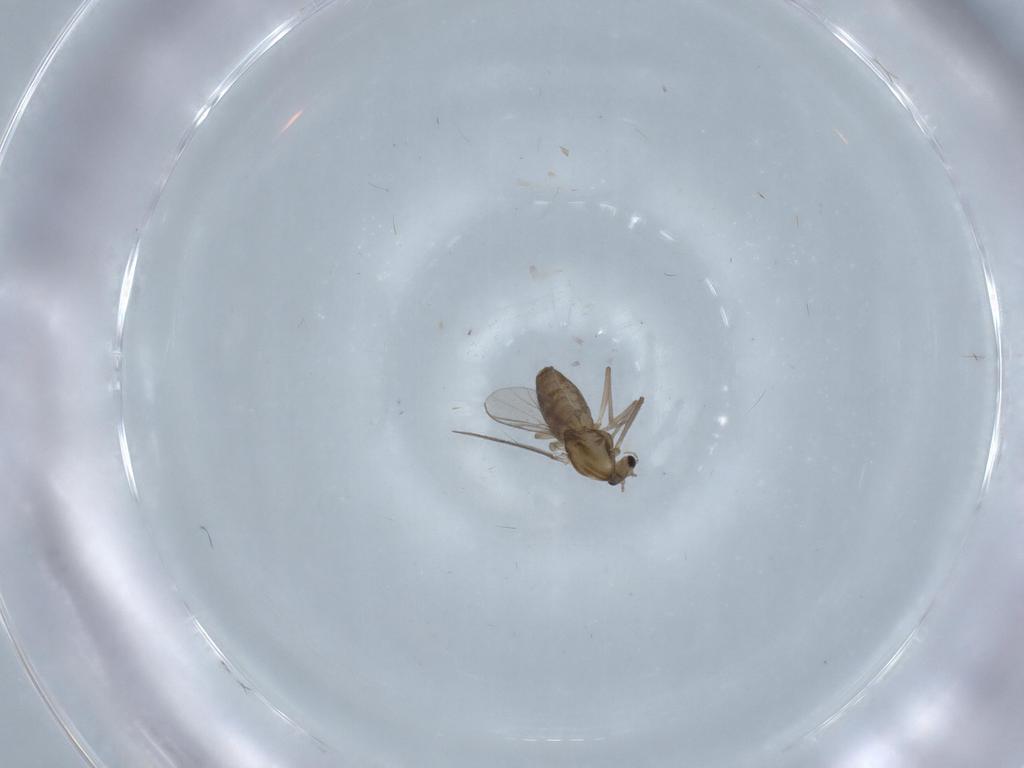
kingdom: Animalia
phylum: Arthropoda
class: Insecta
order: Diptera
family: Chironomidae
